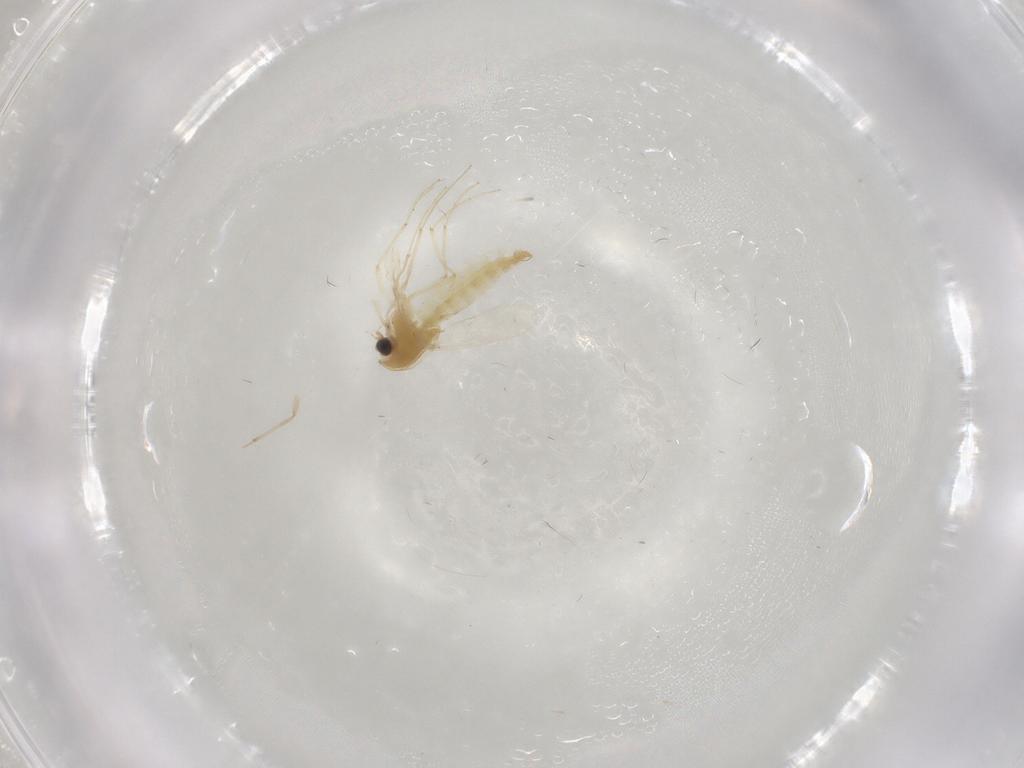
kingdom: Animalia
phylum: Arthropoda
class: Insecta
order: Diptera
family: Chironomidae
